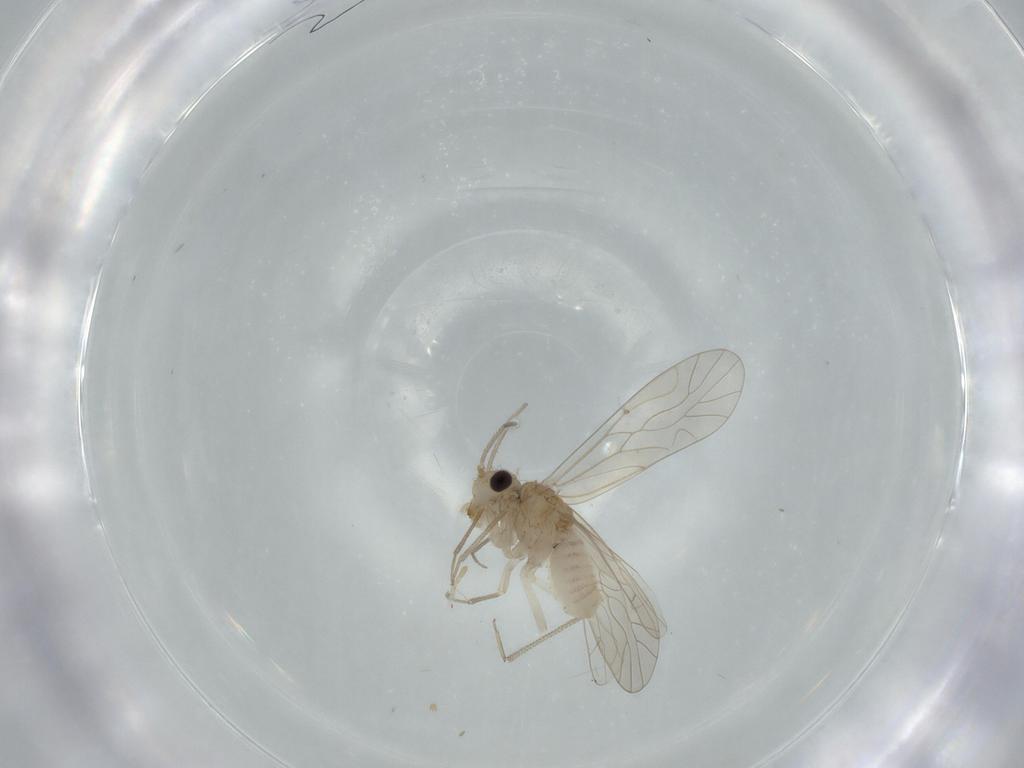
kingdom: Animalia
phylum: Arthropoda
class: Insecta
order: Psocodea
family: Caeciliusidae
